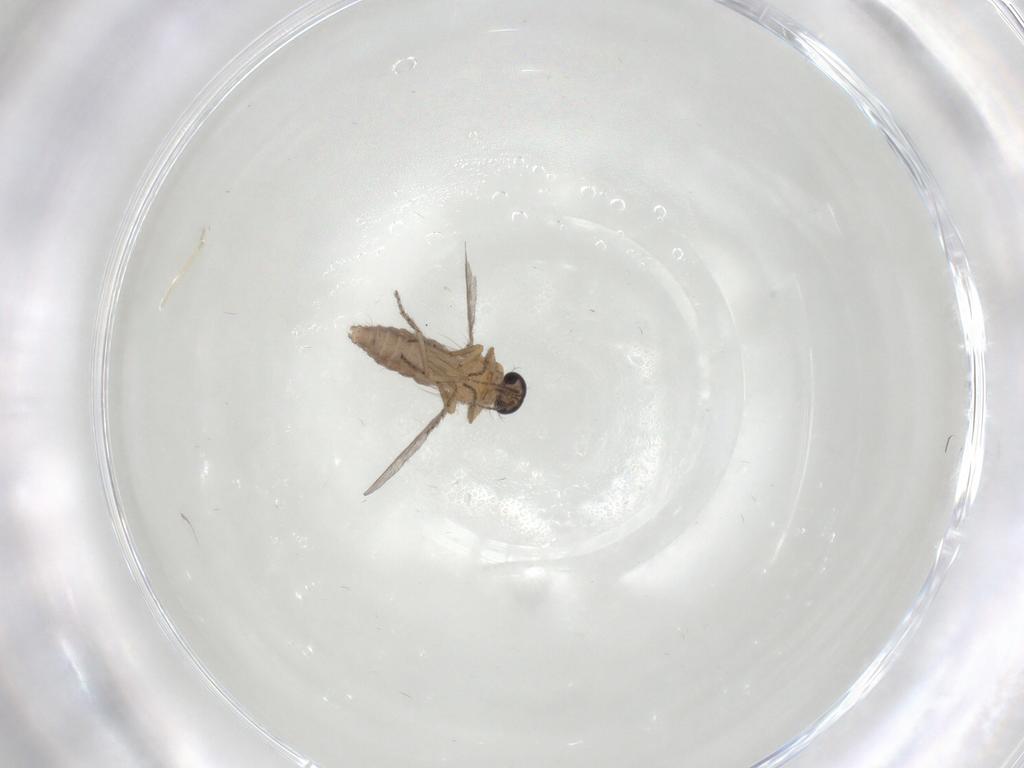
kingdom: Animalia
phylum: Arthropoda
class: Insecta
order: Diptera
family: Ceratopogonidae
